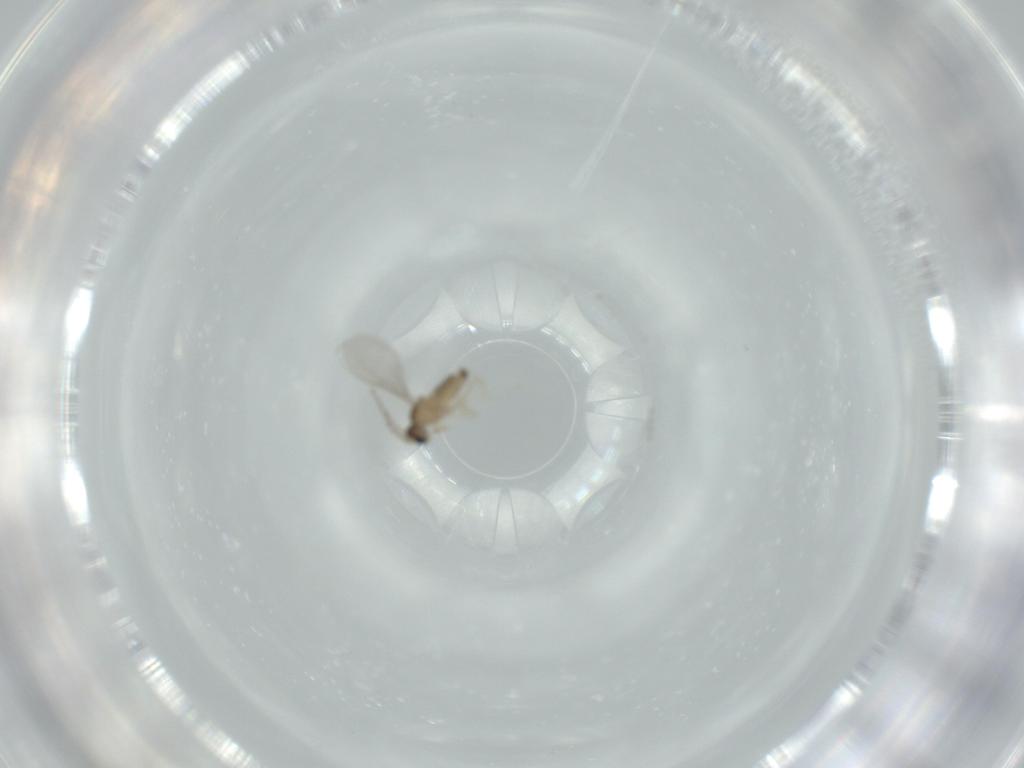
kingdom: Animalia
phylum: Arthropoda
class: Insecta
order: Diptera
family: Cecidomyiidae
